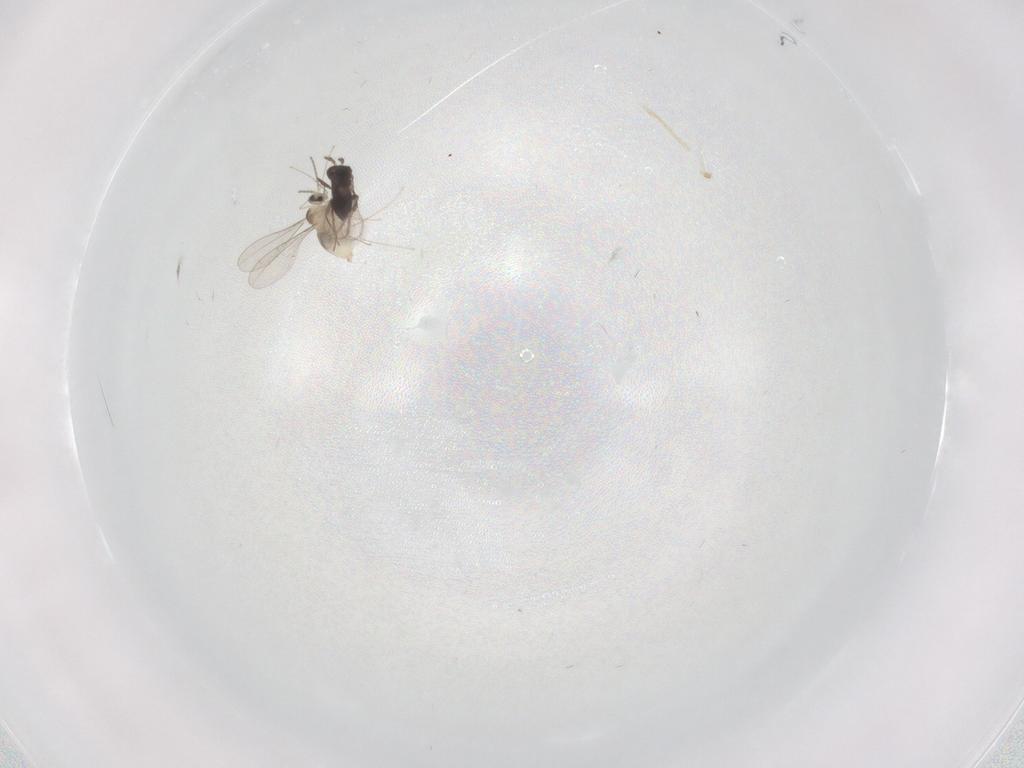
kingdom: Animalia
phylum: Arthropoda
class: Insecta
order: Diptera
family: Cecidomyiidae
